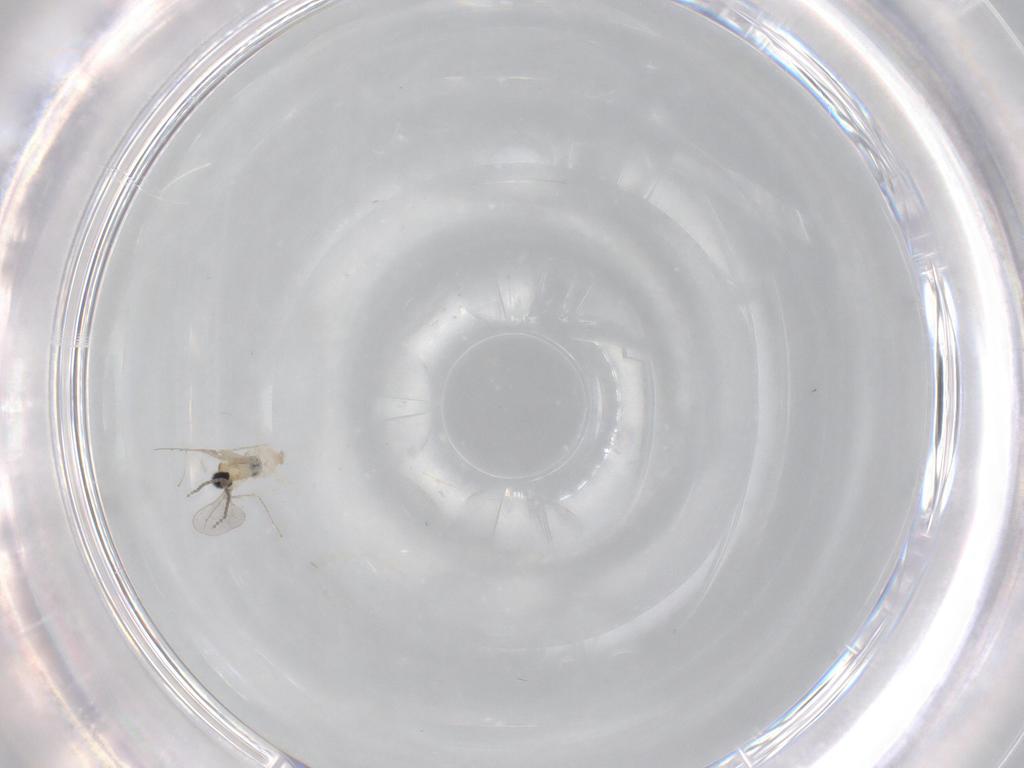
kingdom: Animalia
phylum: Arthropoda
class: Insecta
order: Diptera
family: Cecidomyiidae
